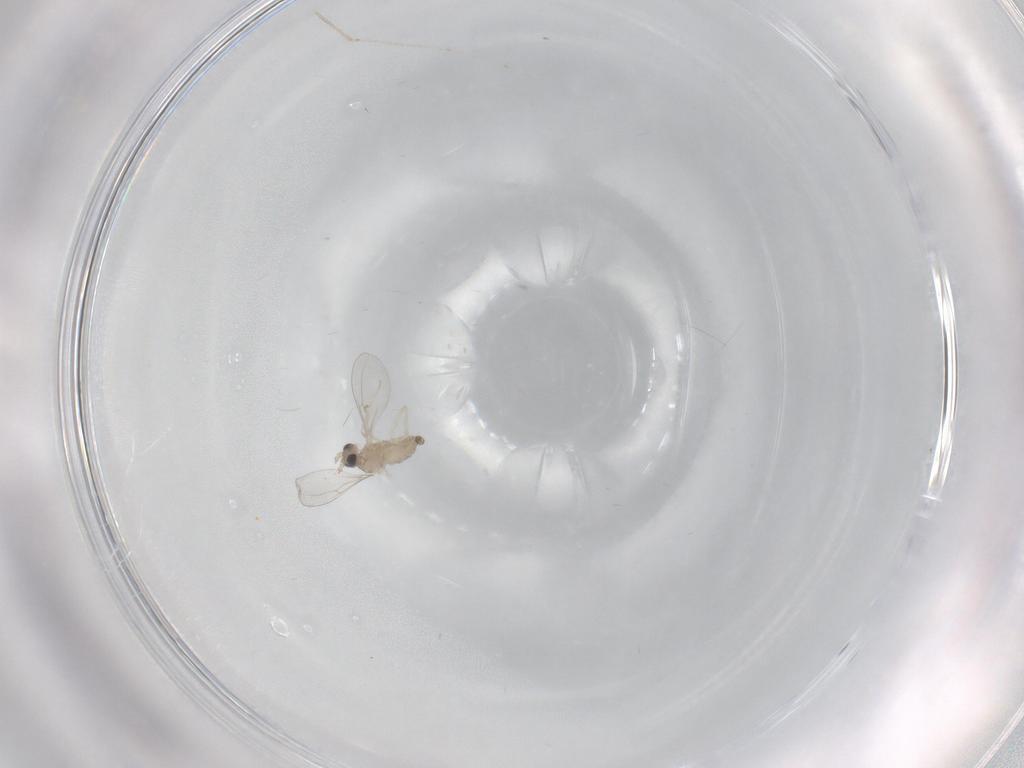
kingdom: Animalia
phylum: Arthropoda
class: Insecta
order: Diptera
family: Cecidomyiidae
